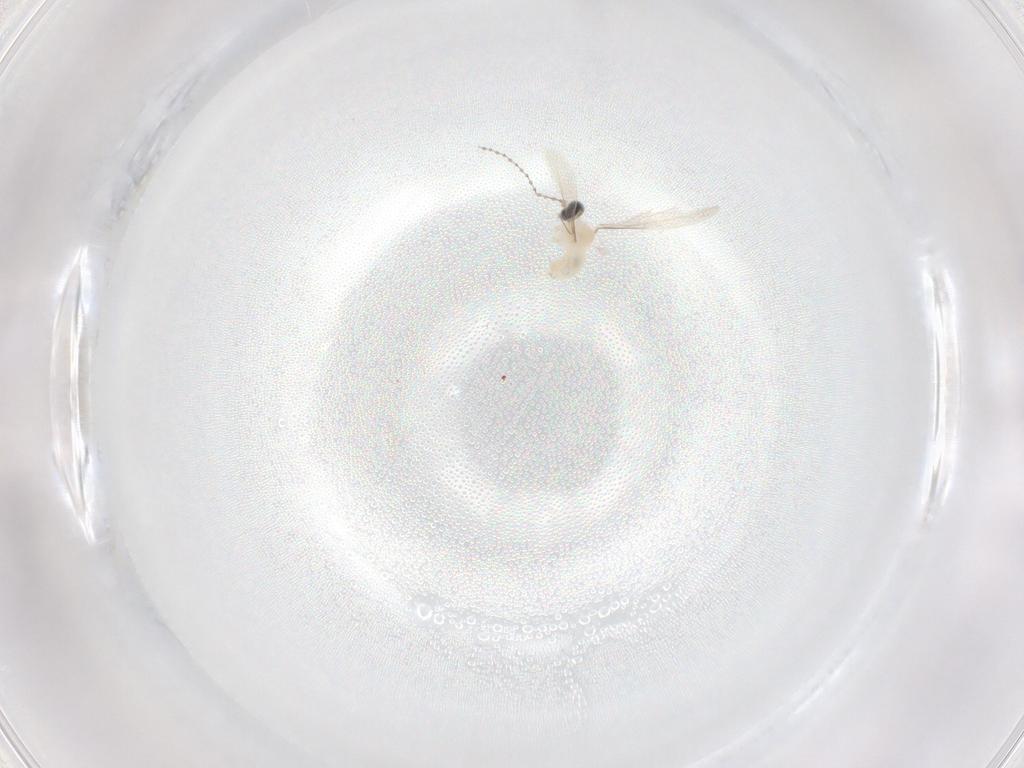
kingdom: Animalia
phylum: Arthropoda
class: Insecta
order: Diptera
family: Cecidomyiidae
